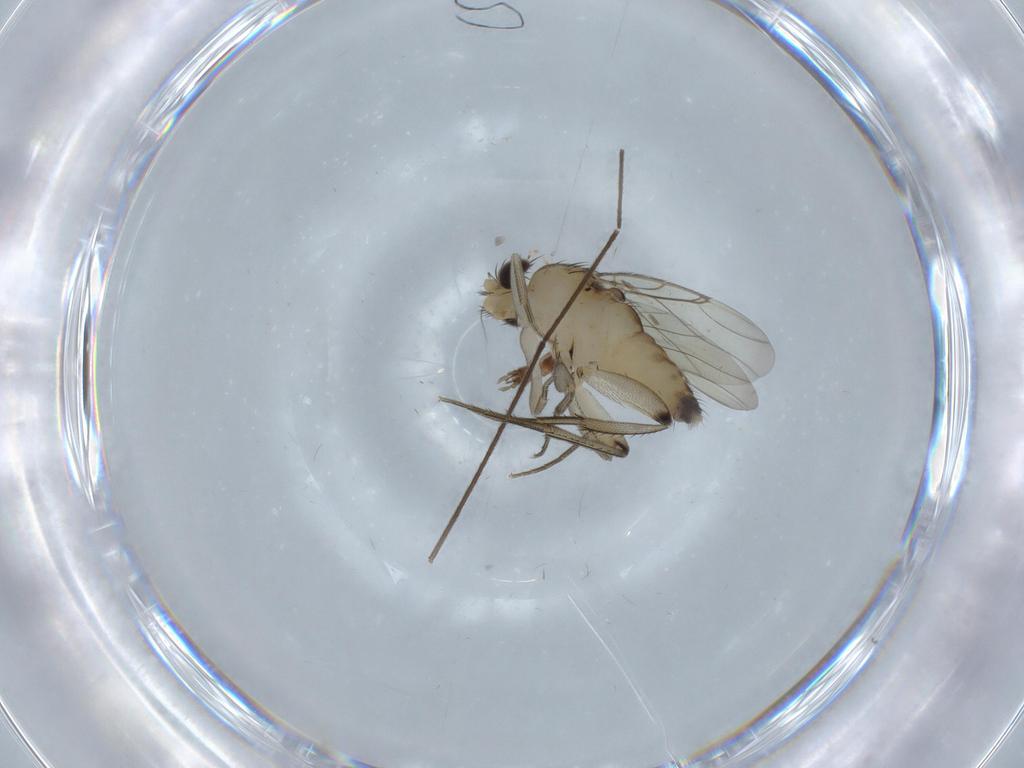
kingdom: Animalia
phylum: Arthropoda
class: Insecta
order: Diptera
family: Phoridae
